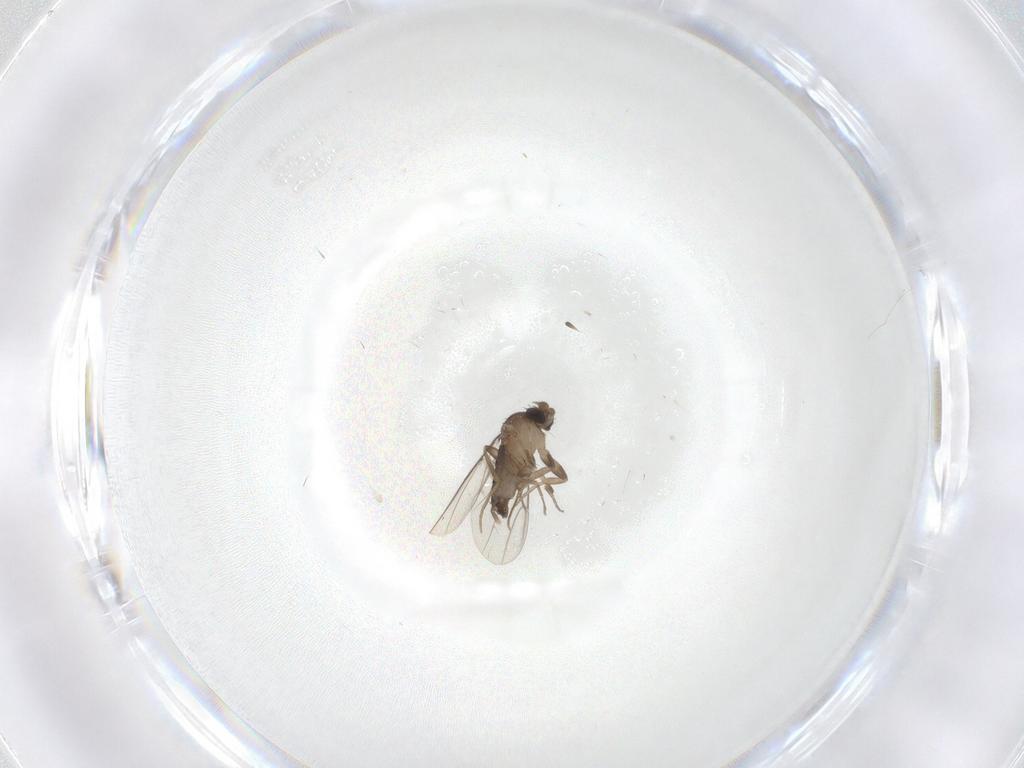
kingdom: Animalia
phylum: Arthropoda
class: Insecta
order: Diptera
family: Phoridae
